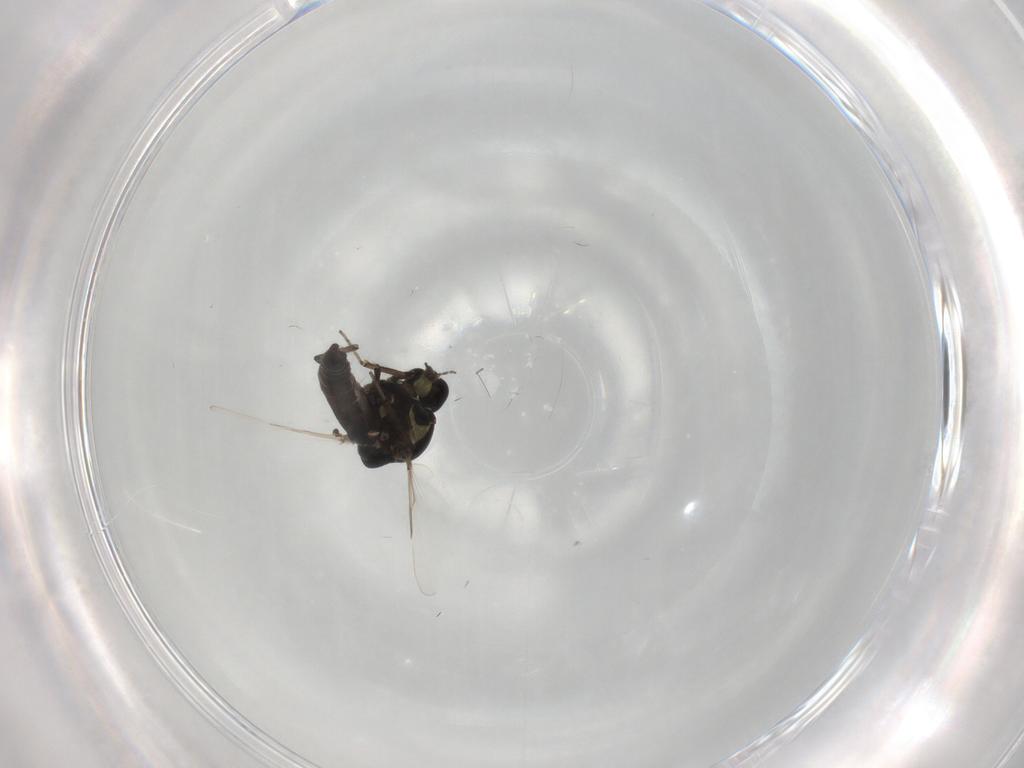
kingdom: Animalia
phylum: Arthropoda
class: Insecta
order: Diptera
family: Ceratopogonidae
